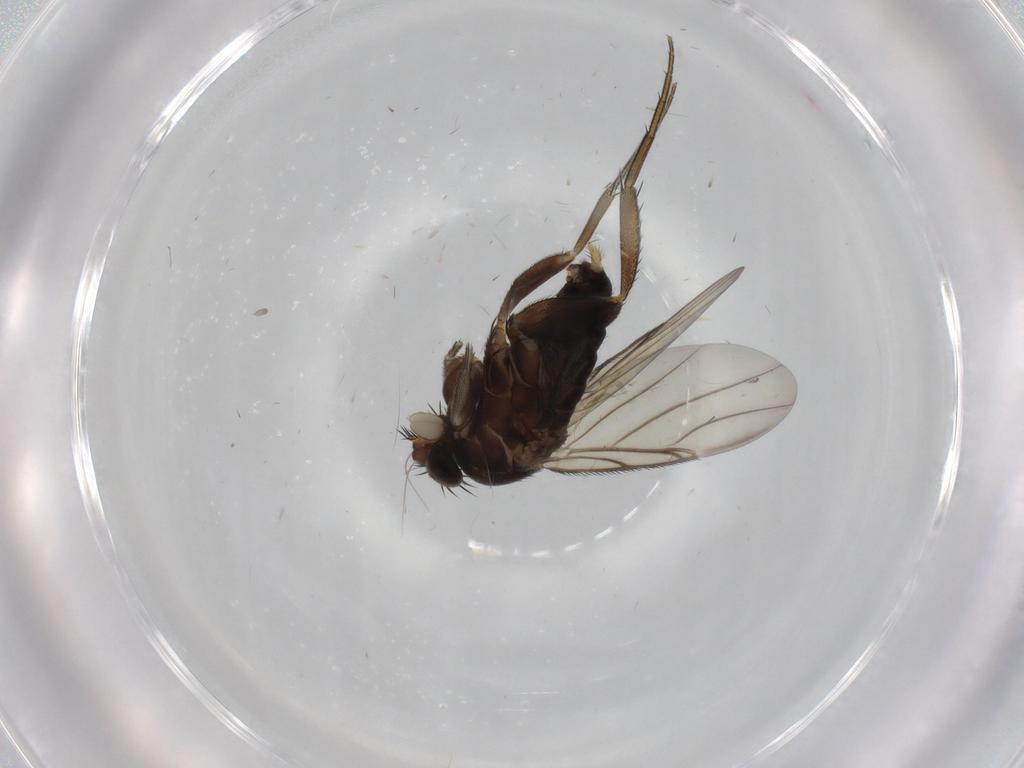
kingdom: Animalia
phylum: Arthropoda
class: Insecta
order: Diptera
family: Phoridae
